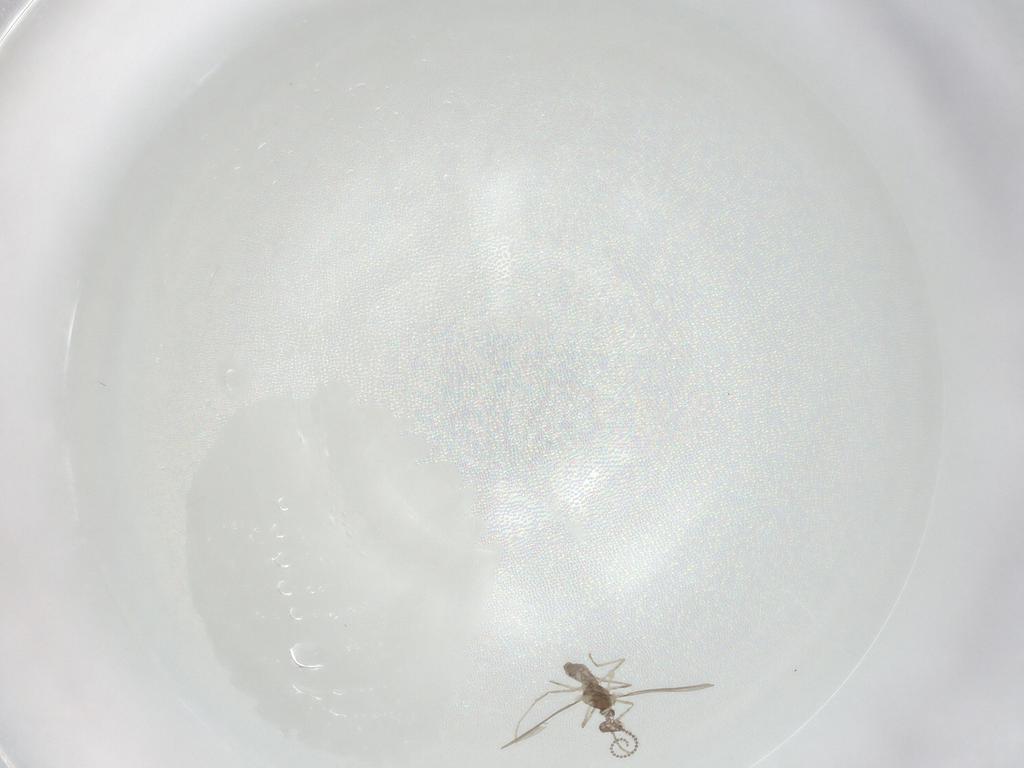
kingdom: Animalia
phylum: Arthropoda
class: Insecta
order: Diptera
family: Cecidomyiidae
